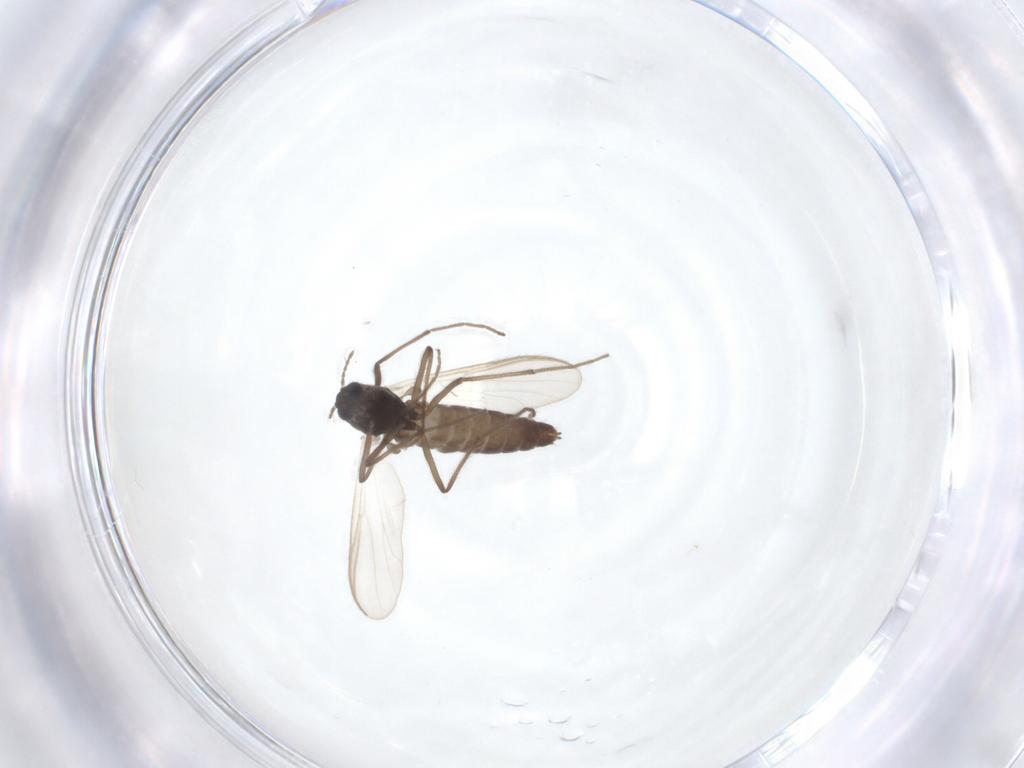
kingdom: Animalia
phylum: Arthropoda
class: Insecta
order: Diptera
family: Chironomidae
